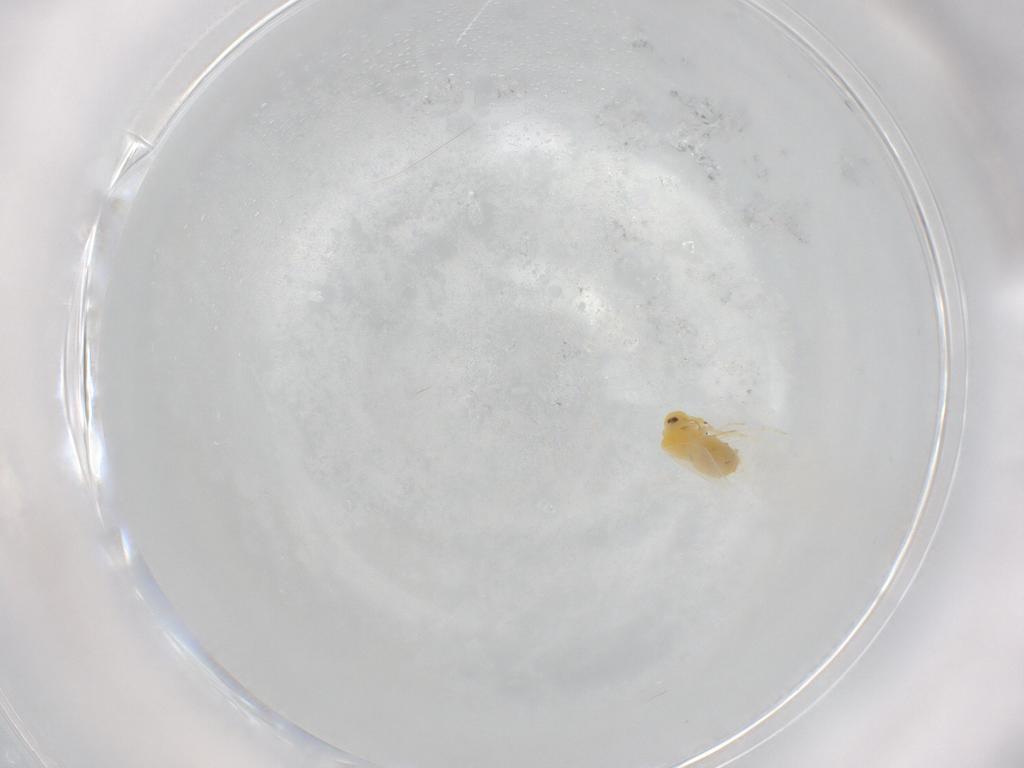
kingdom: Animalia
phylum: Arthropoda
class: Insecta
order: Hemiptera
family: Aleyrodidae
